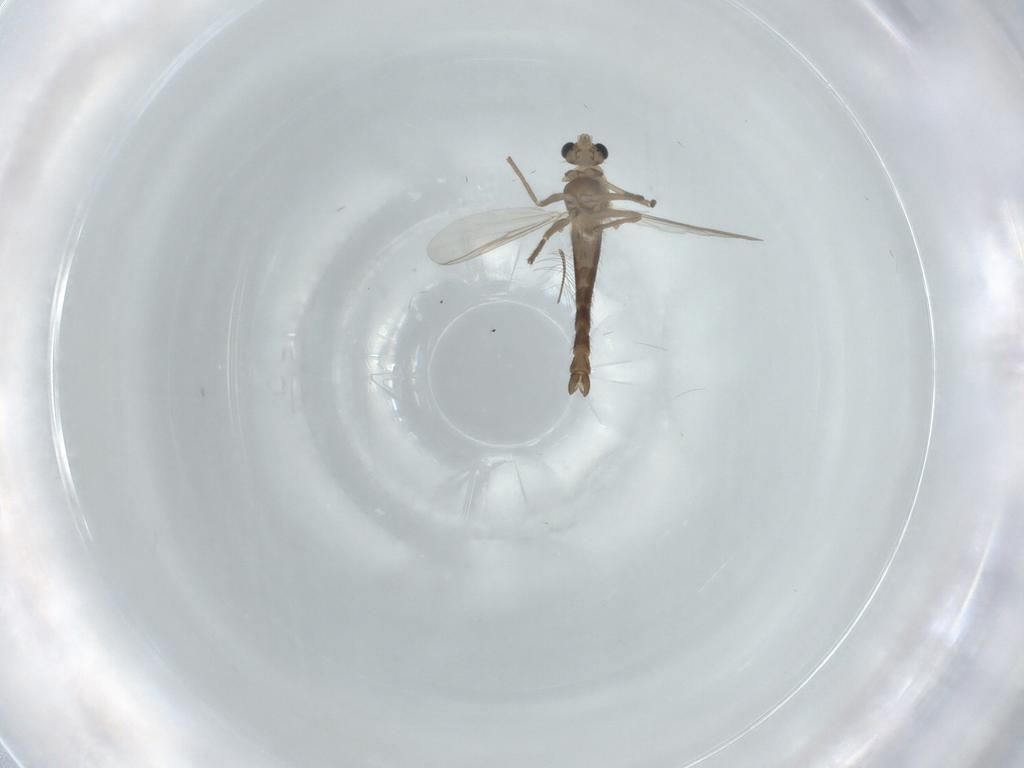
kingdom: Animalia
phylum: Arthropoda
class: Insecta
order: Diptera
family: Chironomidae
